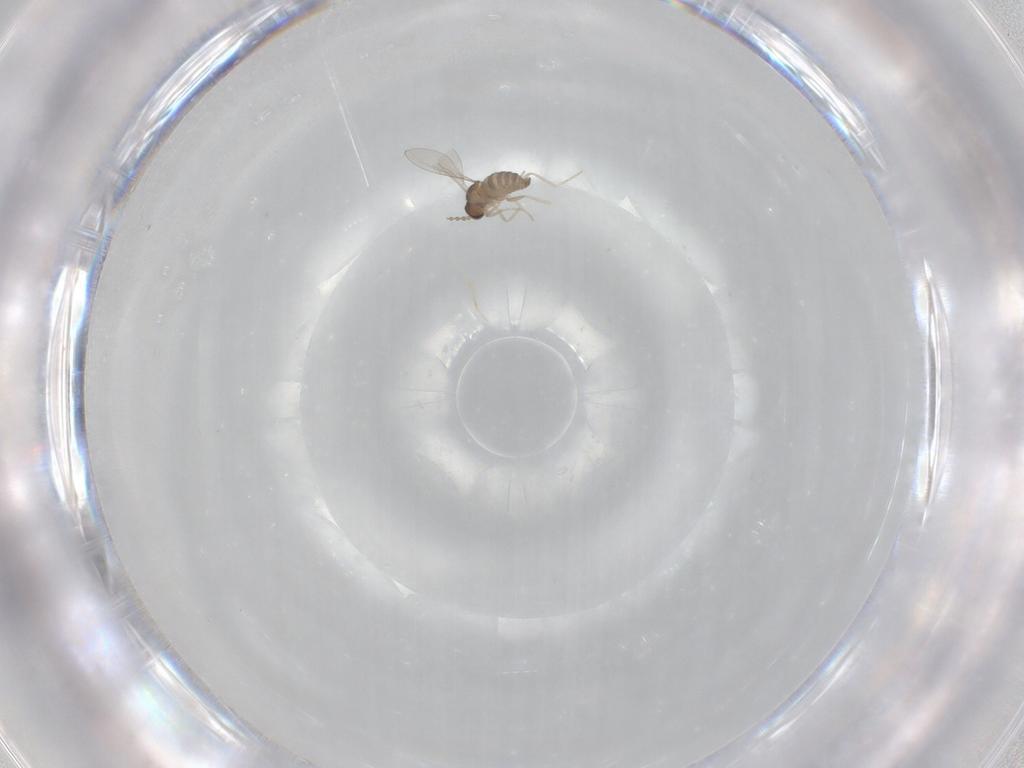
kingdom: Animalia
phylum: Arthropoda
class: Insecta
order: Diptera
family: Cecidomyiidae
